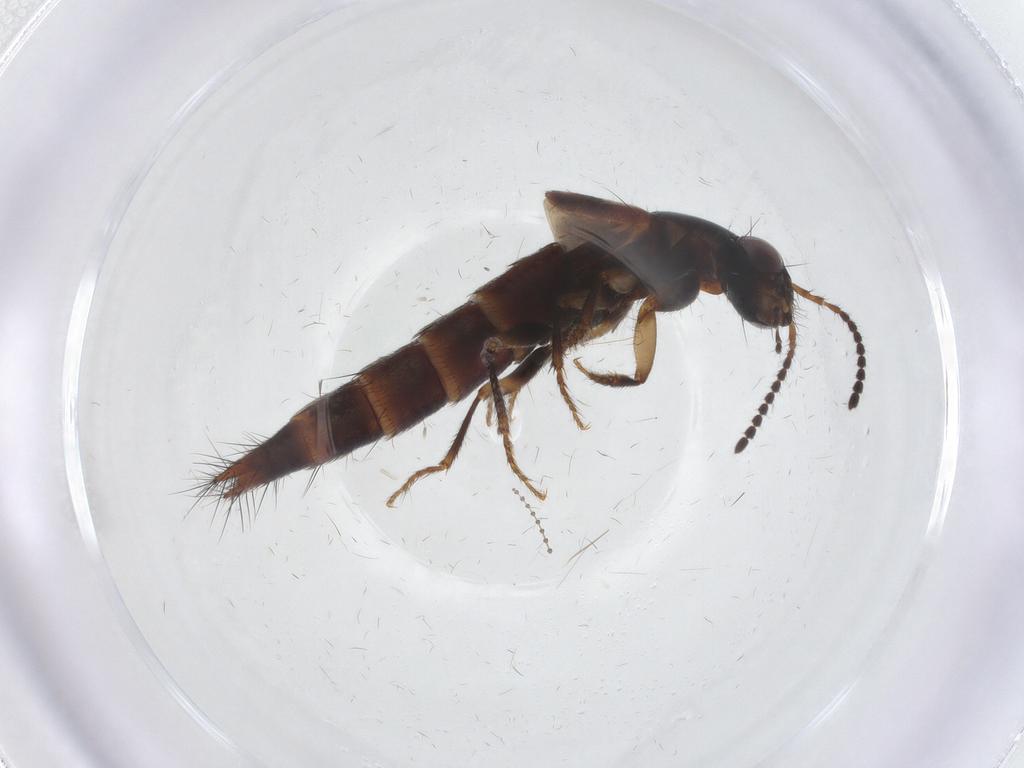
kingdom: Animalia
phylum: Arthropoda
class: Insecta
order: Coleoptera
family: Staphylinidae
